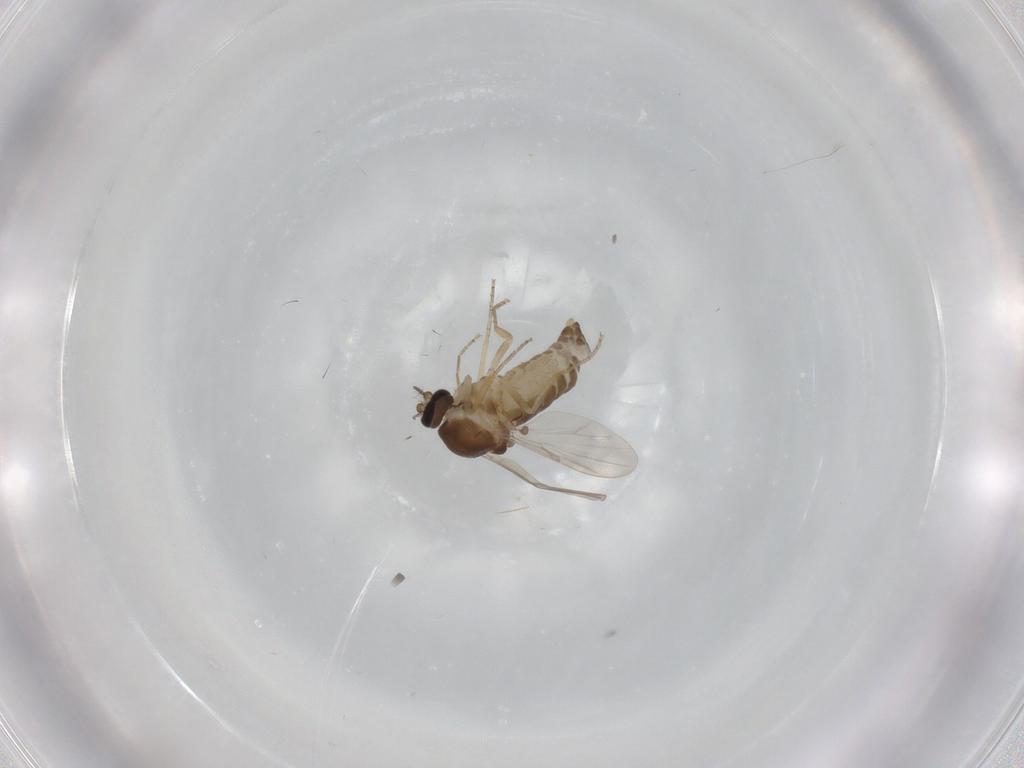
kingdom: Animalia
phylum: Arthropoda
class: Insecta
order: Diptera
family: Ceratopogonidae
